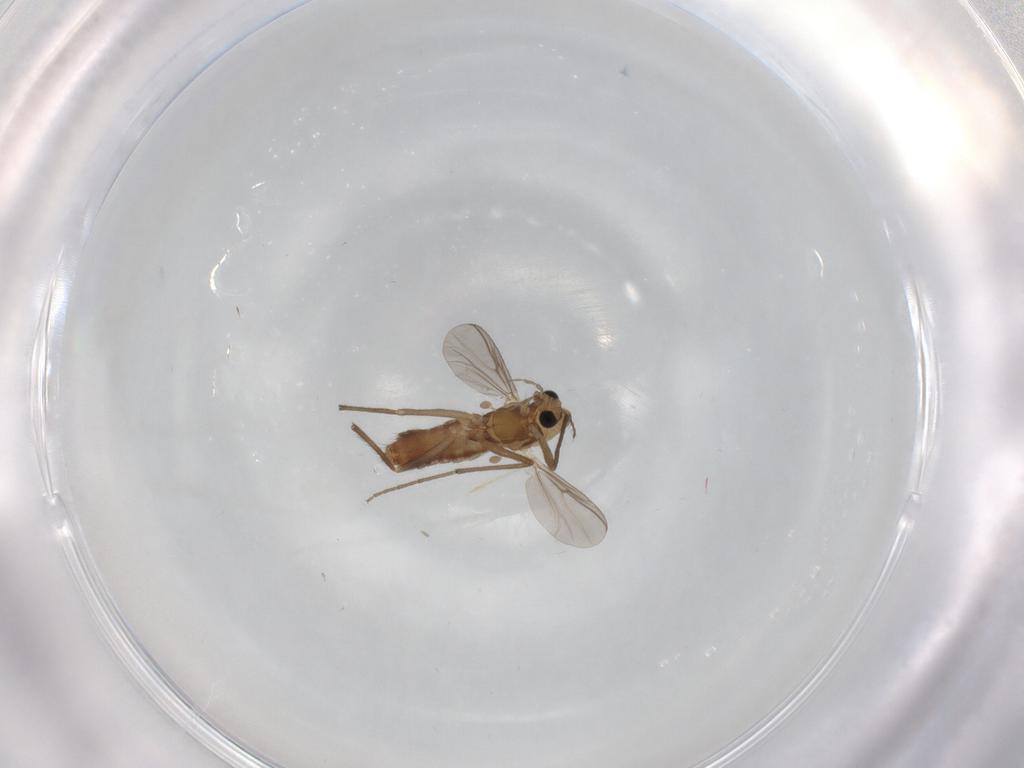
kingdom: Animalia
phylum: Arthropoda
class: Insecta
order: Diptera
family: Chironomidae
